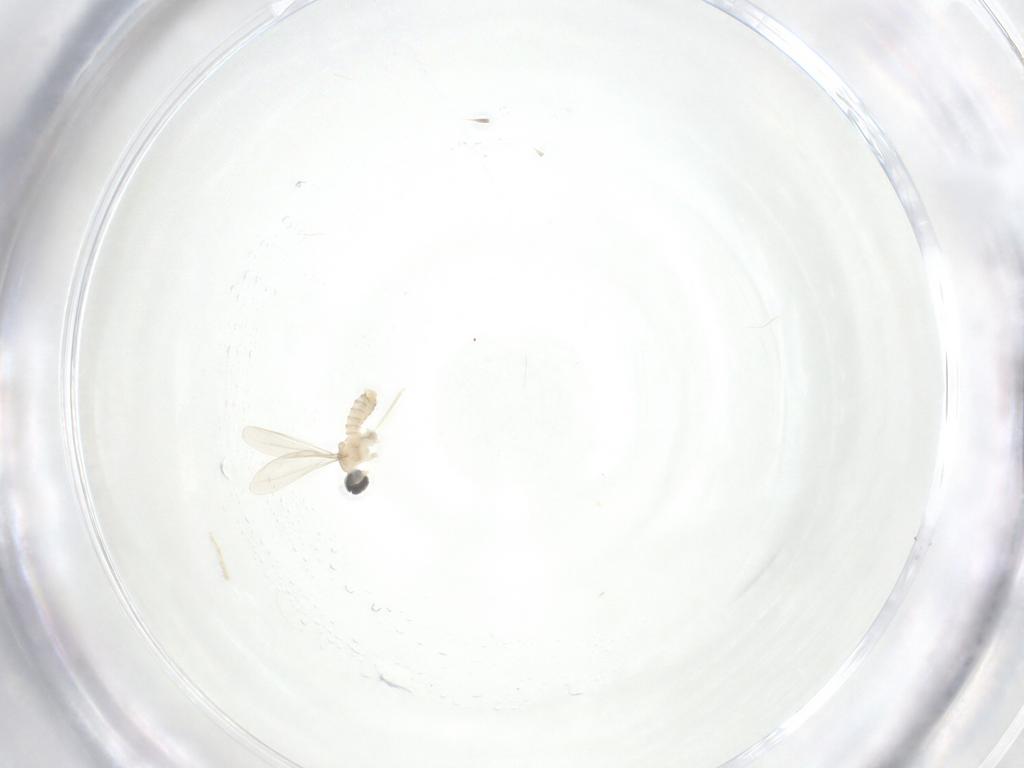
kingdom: Animalia
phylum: Arthropoda
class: Insecta
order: Diptera
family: Cecidomyiidae
